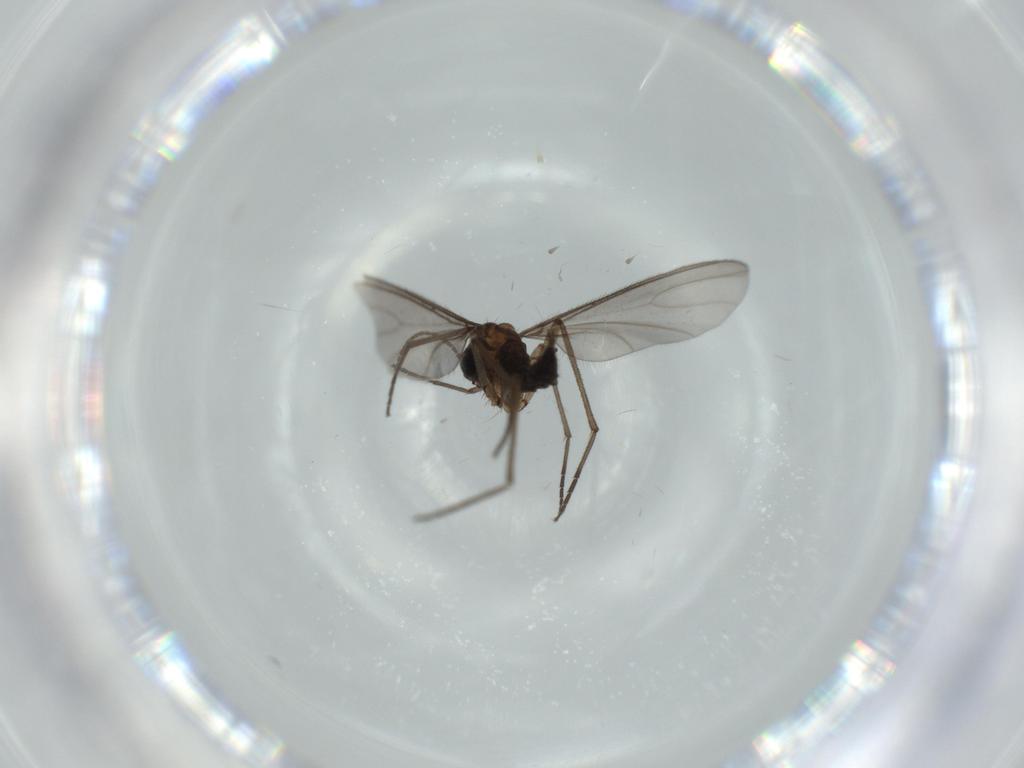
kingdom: Animalia
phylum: Arthropoda
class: Insecta
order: Diptera
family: Sciaridae
